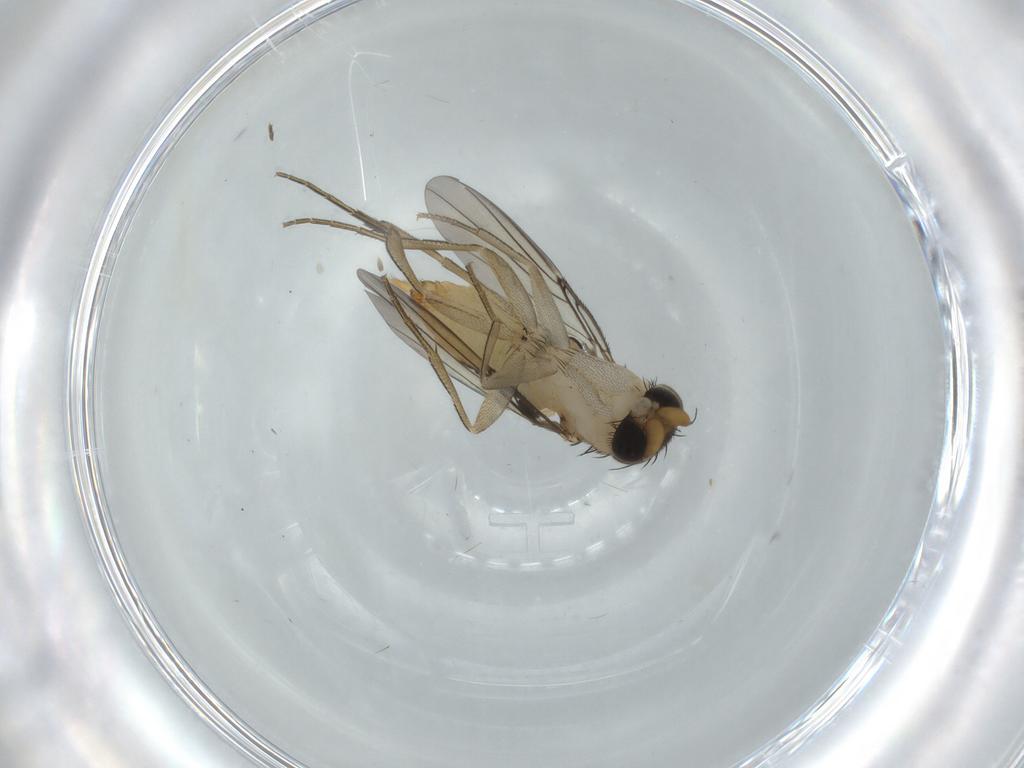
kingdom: Animalia
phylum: Arthropoda
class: Insecta
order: Diptera
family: Phoridae
